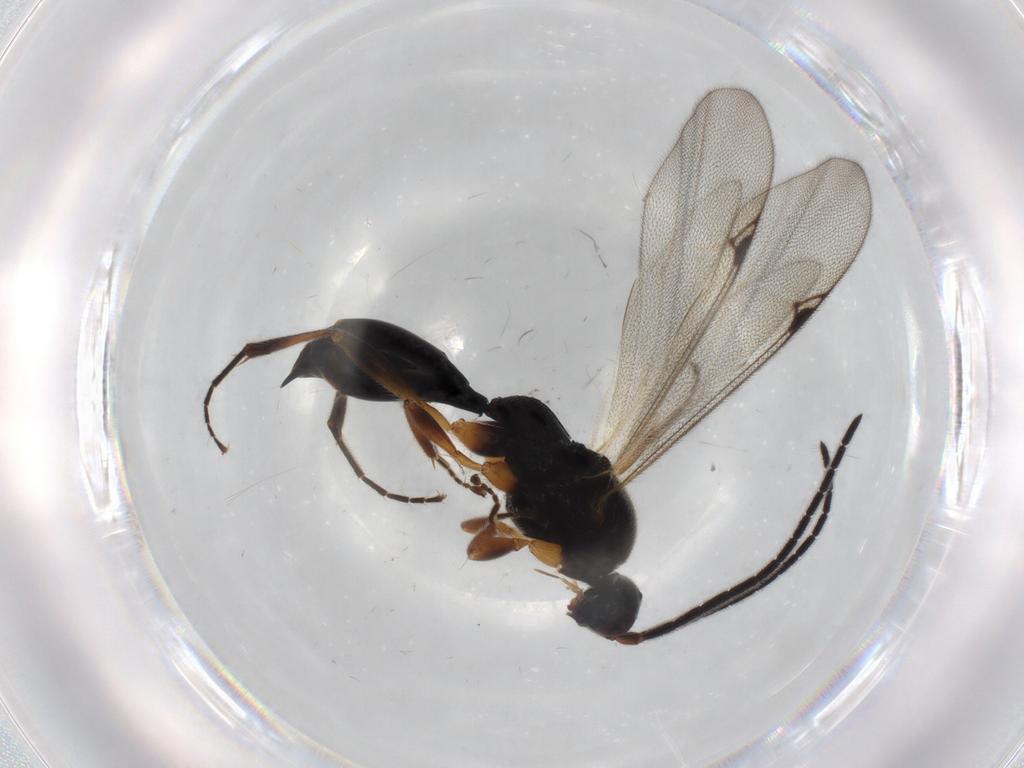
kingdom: Animalia
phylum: Arthropoda
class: Insecta
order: Hymenoptera
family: Proctotrupidae
